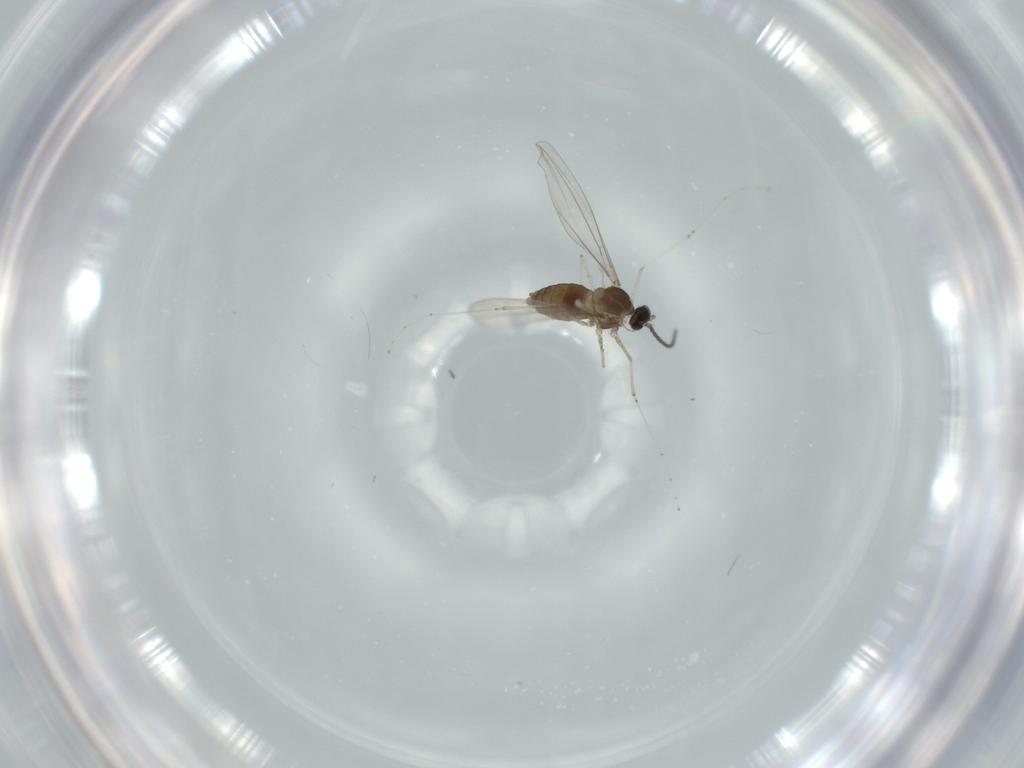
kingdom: Animalia
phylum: Arthropoda
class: Insecta
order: Diptera
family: Cecidomyiidae
